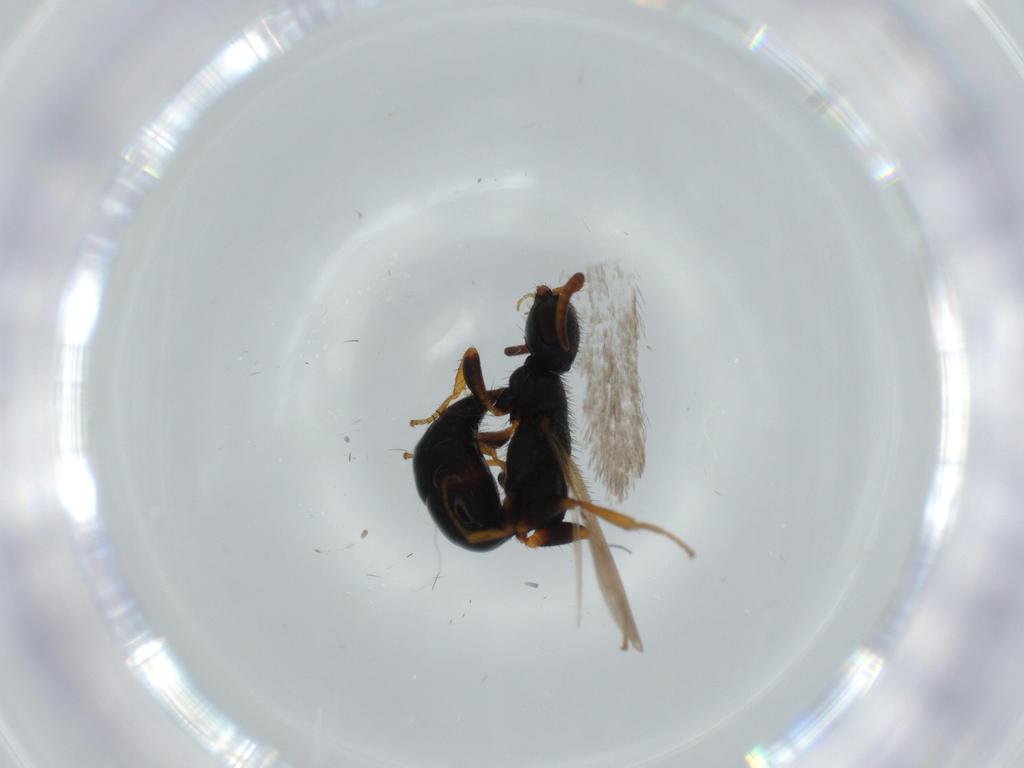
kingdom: Animalia
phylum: Arthropoda
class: Insecta
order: Hymenoptera
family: Bethylidae
